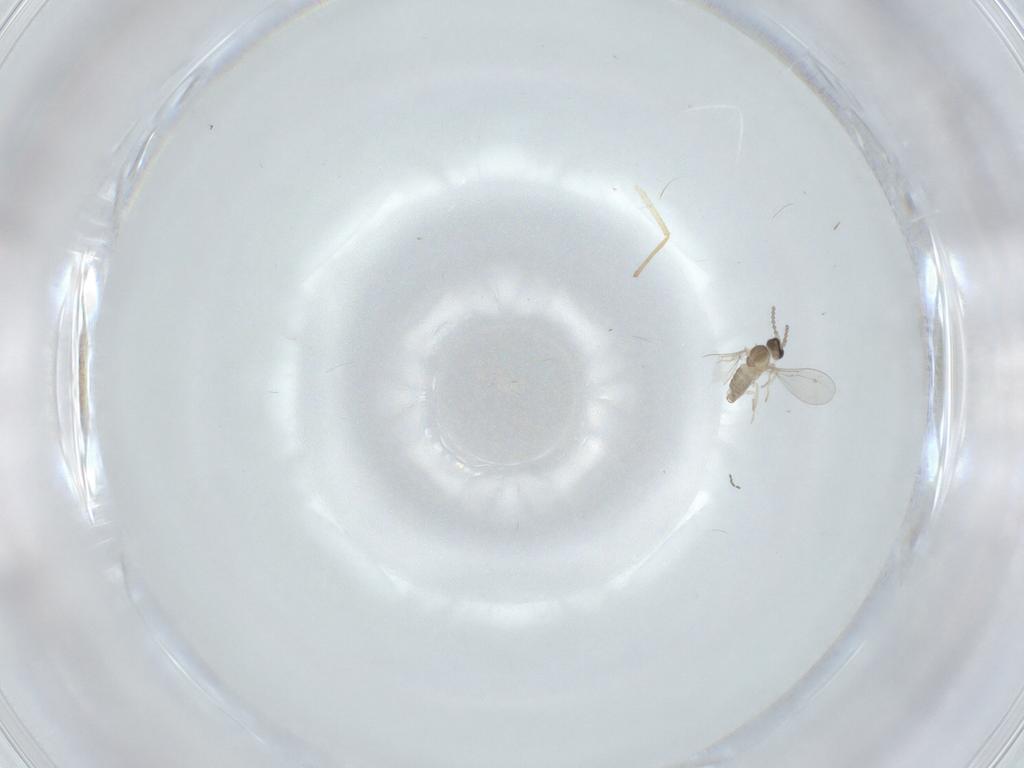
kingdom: Animalia
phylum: Arthropoda
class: Insecta
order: Diptera
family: Cecidomyiidae
